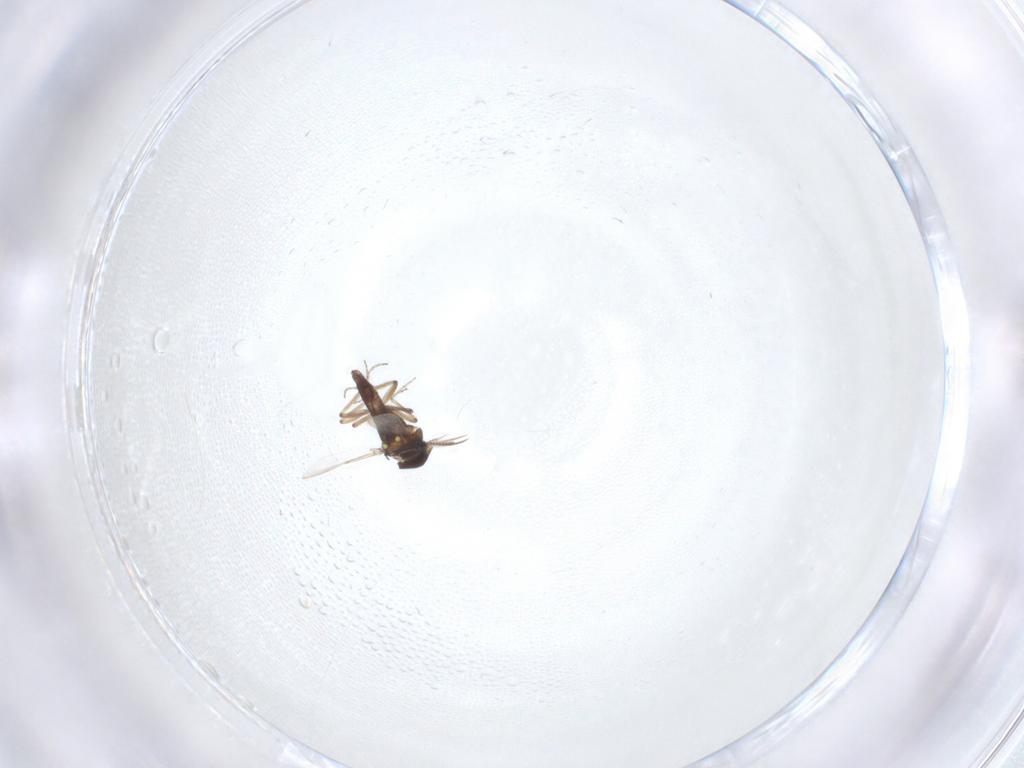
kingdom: Animalia
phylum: Arthropoda
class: Insecta
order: Diptera
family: Ceratopogonidae
